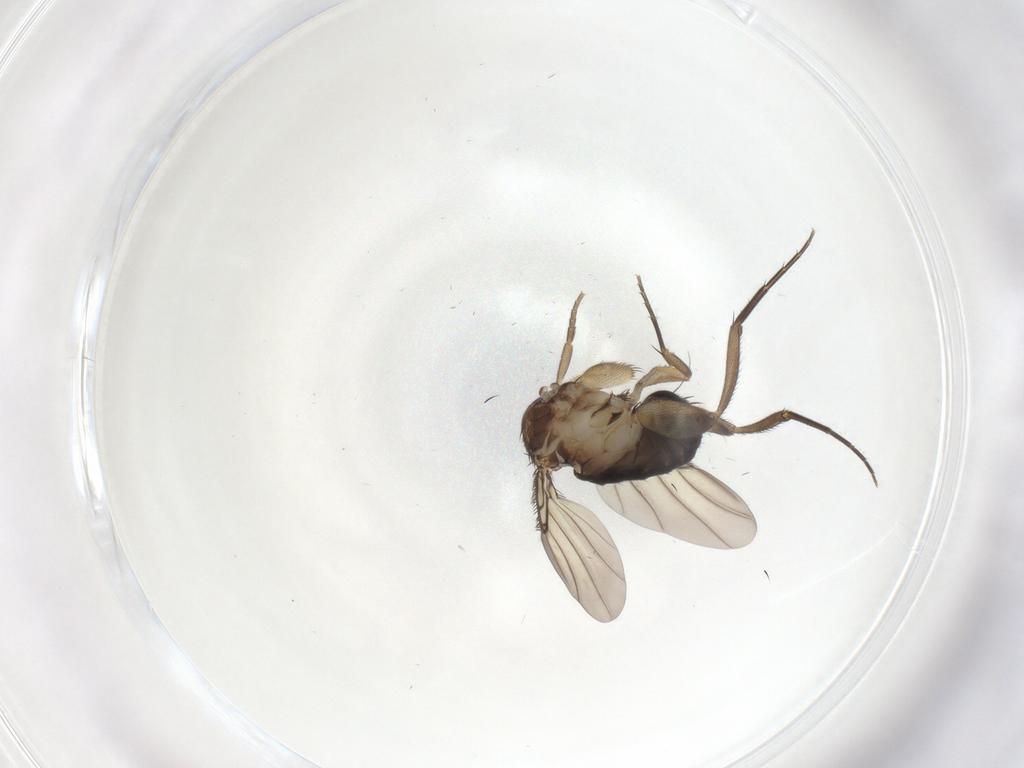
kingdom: Animalia
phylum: Arthropoda
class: Insecta
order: Diptera
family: Phoridae
